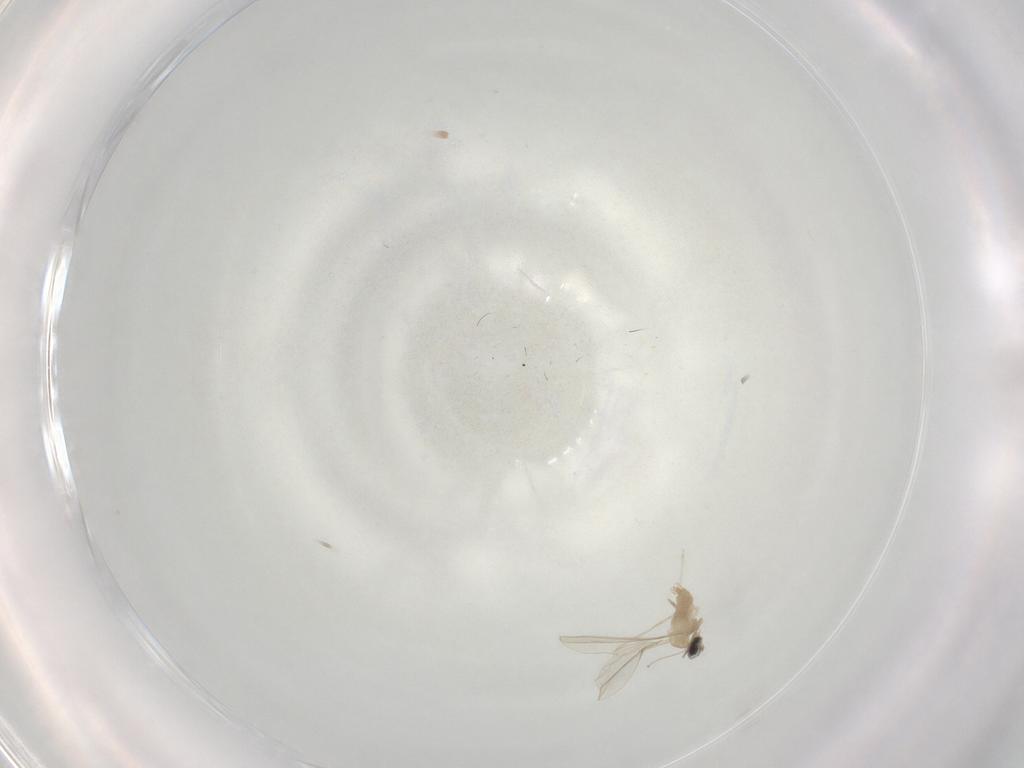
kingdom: Animalia
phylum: Arthropoda
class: Insecta
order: Diptera
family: Cecidomyiidae
